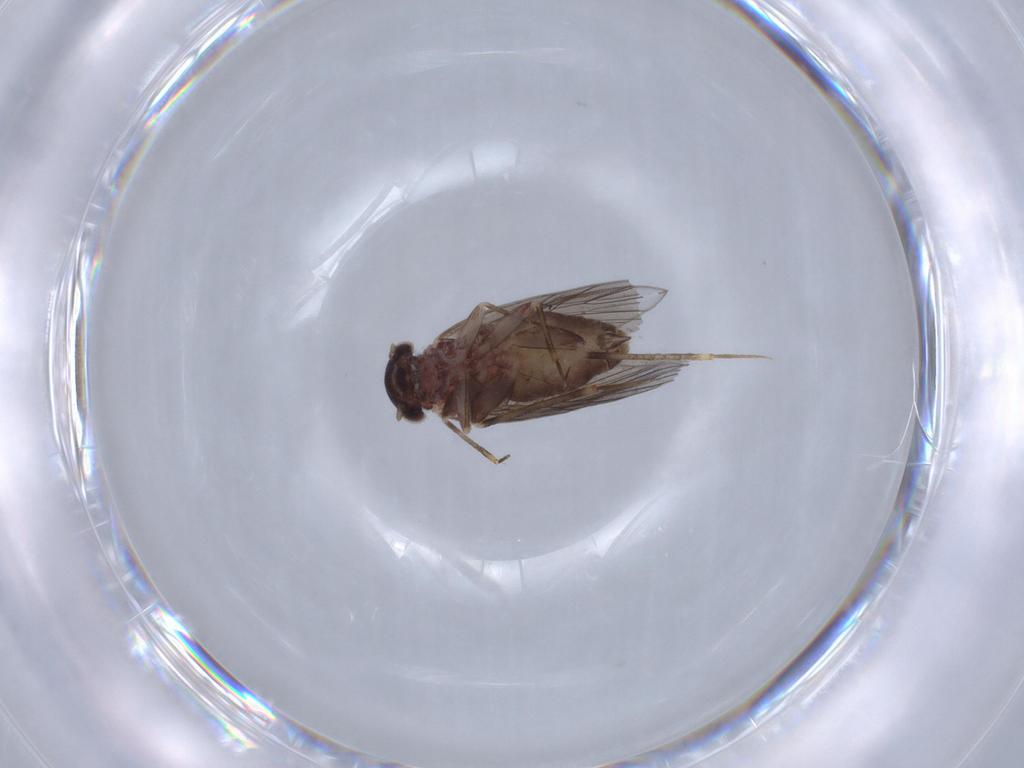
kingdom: Animalia
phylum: Arthropoda
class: Insecta
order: Psocodea
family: Lepidopsocidae
